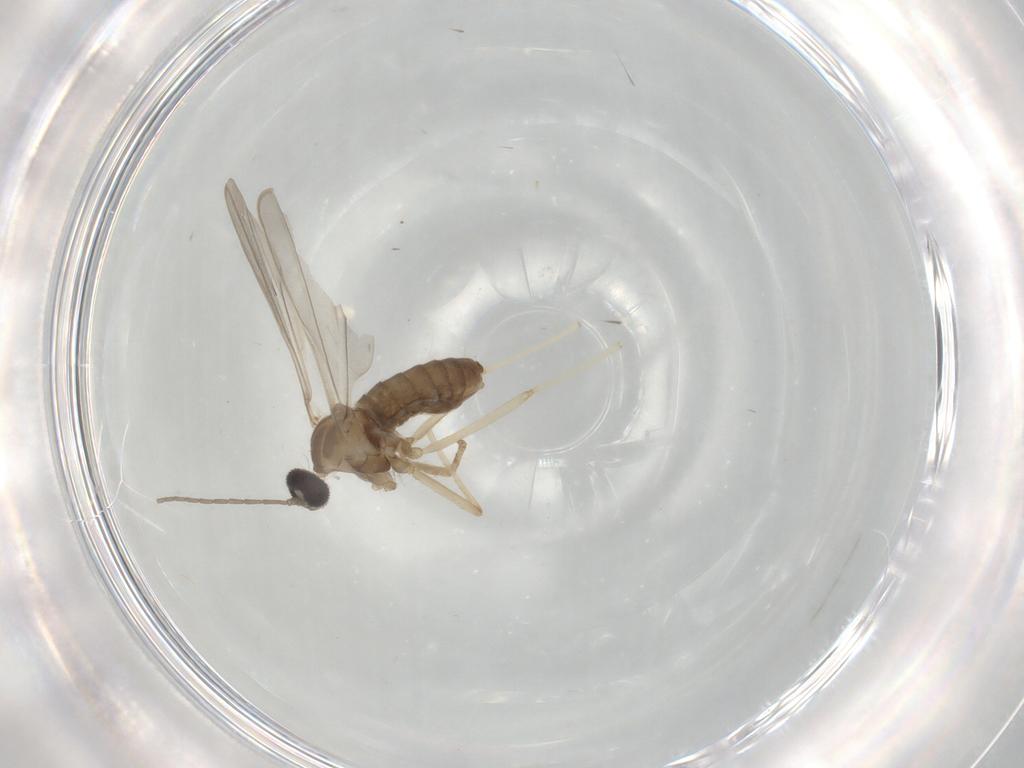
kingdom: Animalia
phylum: Arthropoda
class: Insecta
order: Diptera
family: Cecidomyiidae
